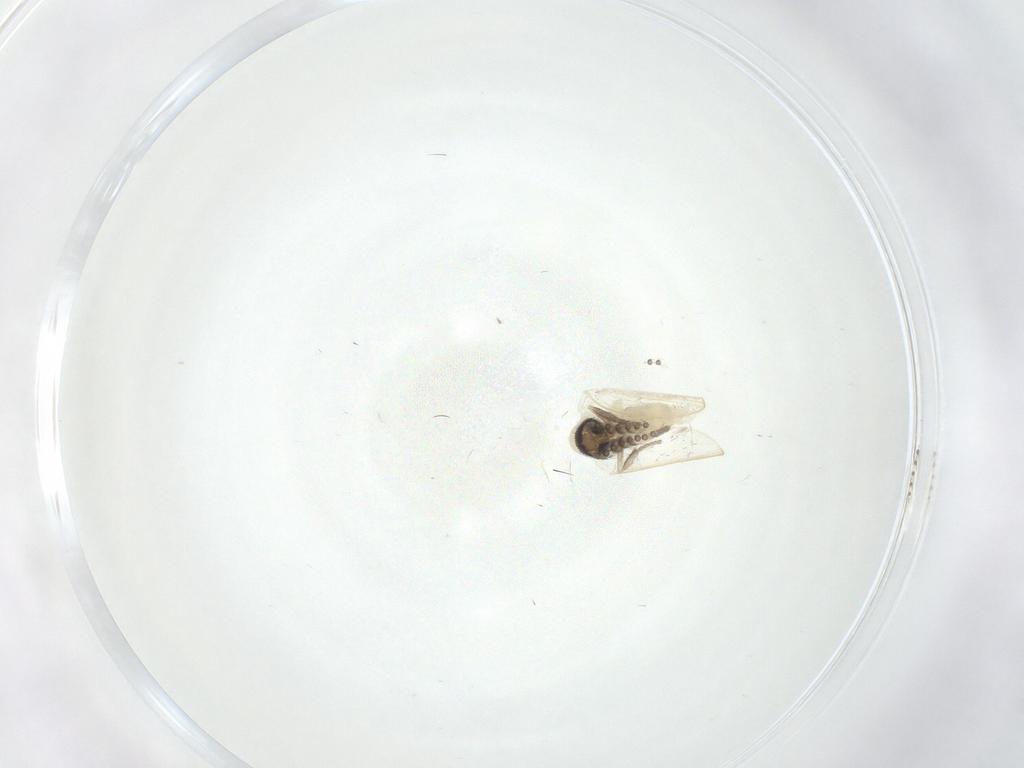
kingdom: Animalia
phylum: Arthropoda
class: Insecta
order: Diptera
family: Psychodidae
